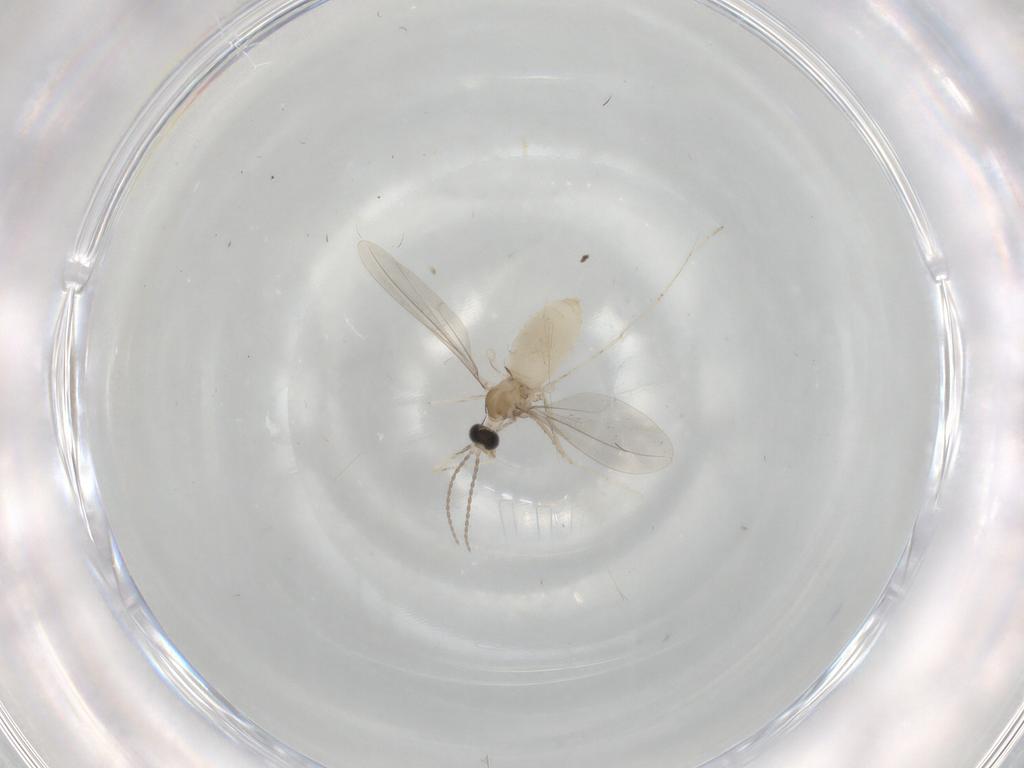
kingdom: Animalia
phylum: Arthropoda
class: Insecta
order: Diptera
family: Cecidomyiidae
